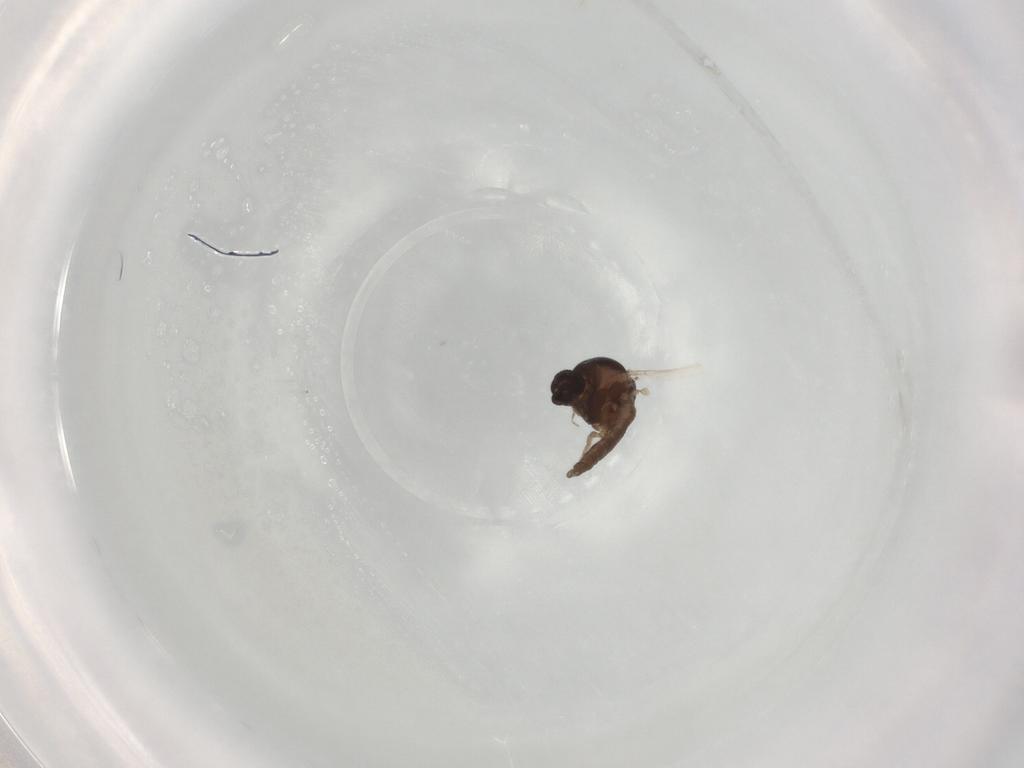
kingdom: Animalia
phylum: Arthropoda
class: Insecta
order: Diptera
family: Ceratopogonidae
